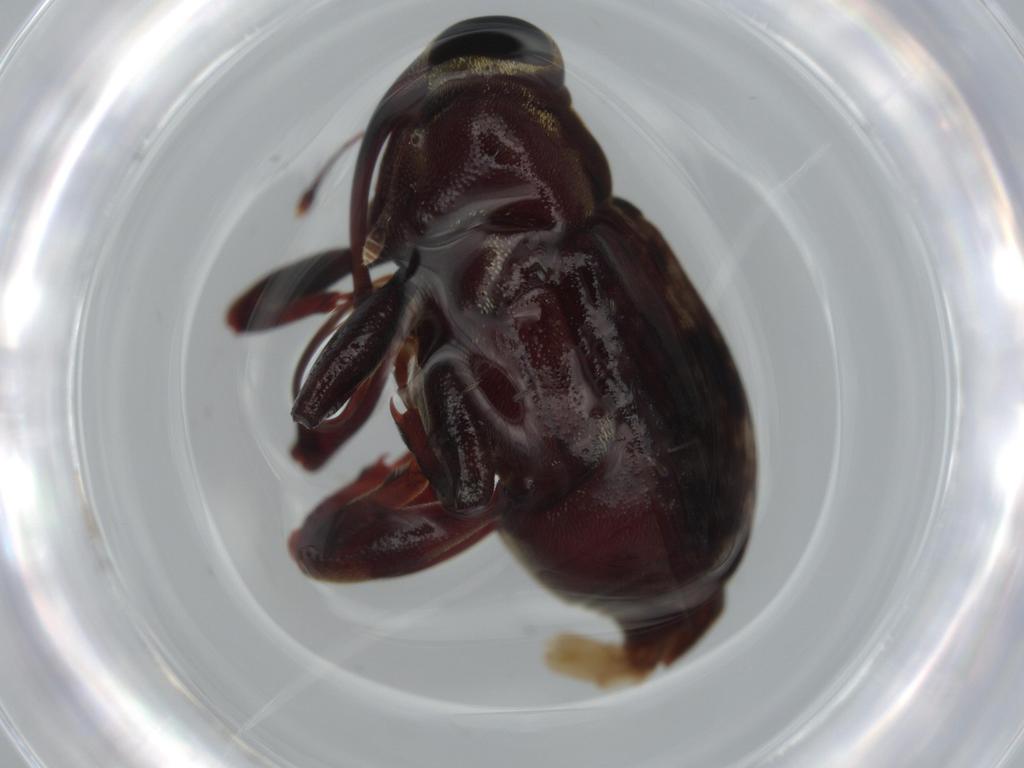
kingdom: Animalia
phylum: Arthropoda
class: Insecta
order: Coleoptera
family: Curculionidae
